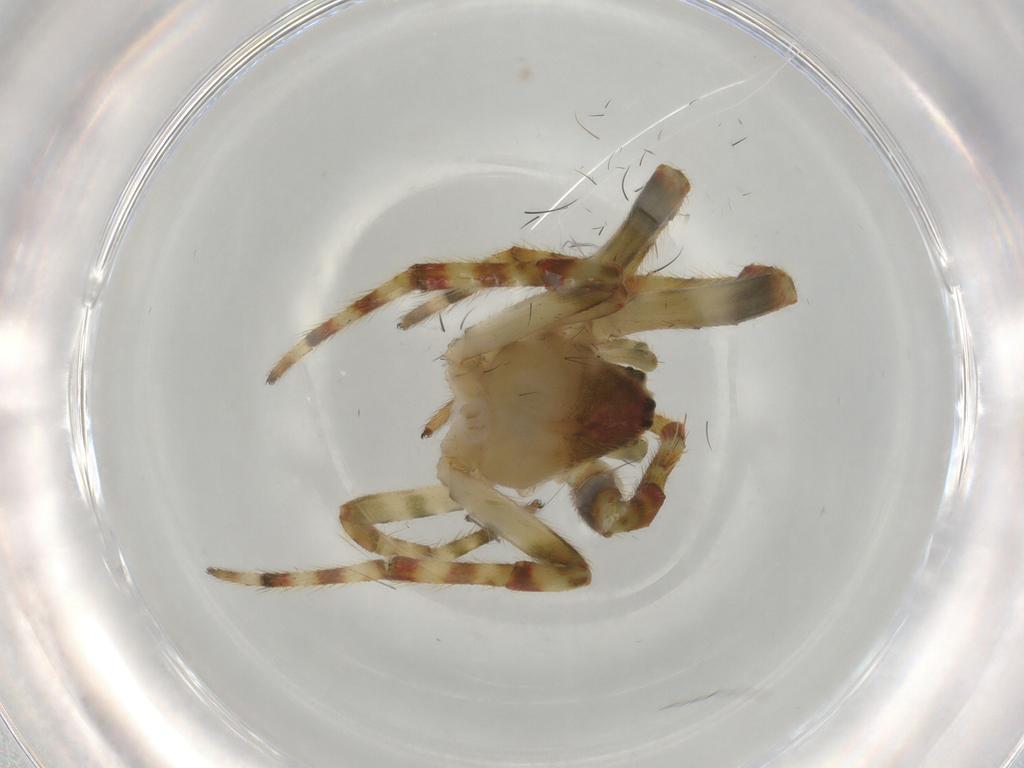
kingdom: Animalia
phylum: Arthropoda
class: Arachnida
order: Araneae
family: Araneidae
